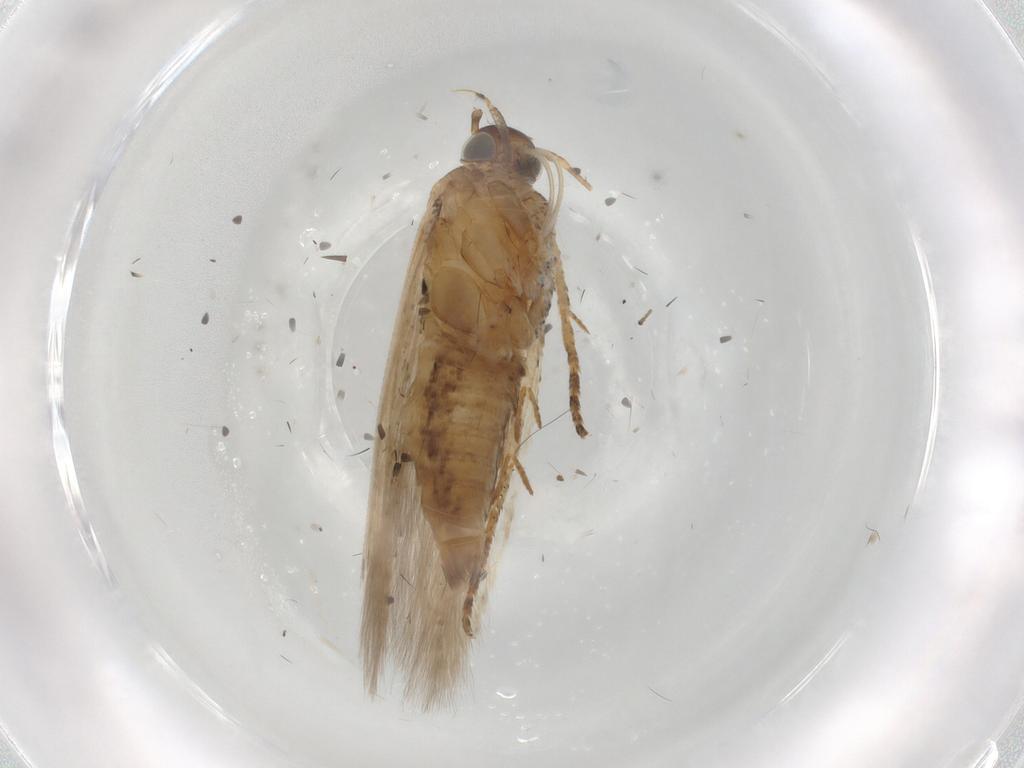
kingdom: Animalia
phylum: Arthropoda
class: Insecta
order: Lepidoptera
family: Gelechiidae
